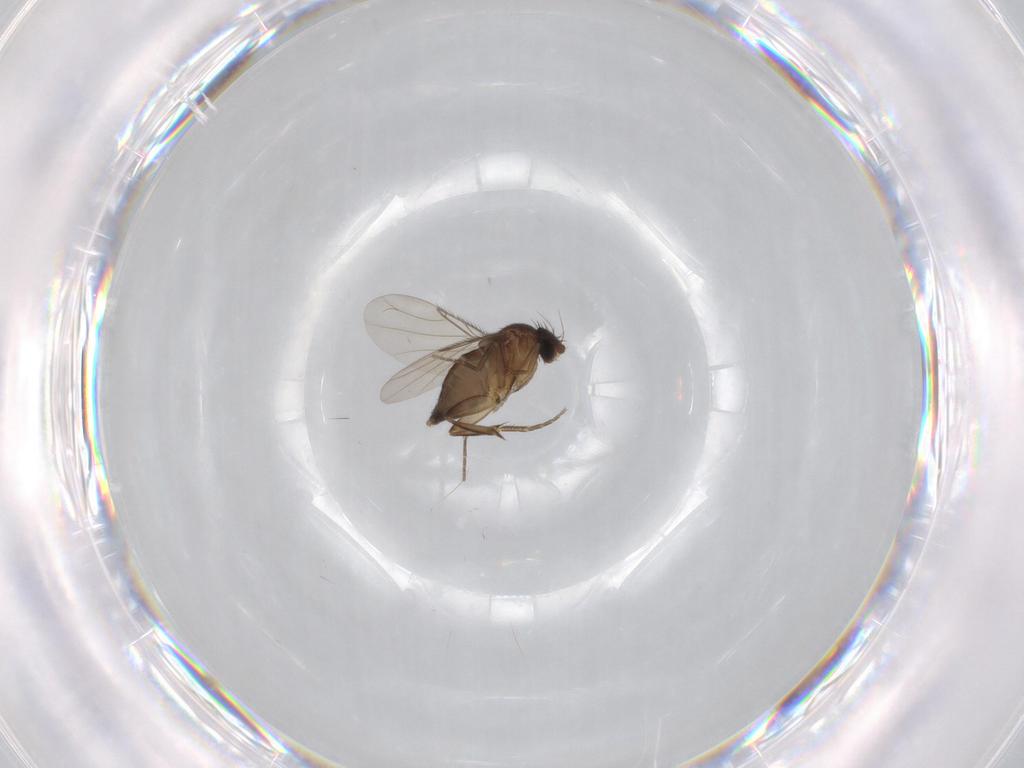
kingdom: Animalia
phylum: Arthropoda
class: Insecta
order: Diptera
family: Phoridae
